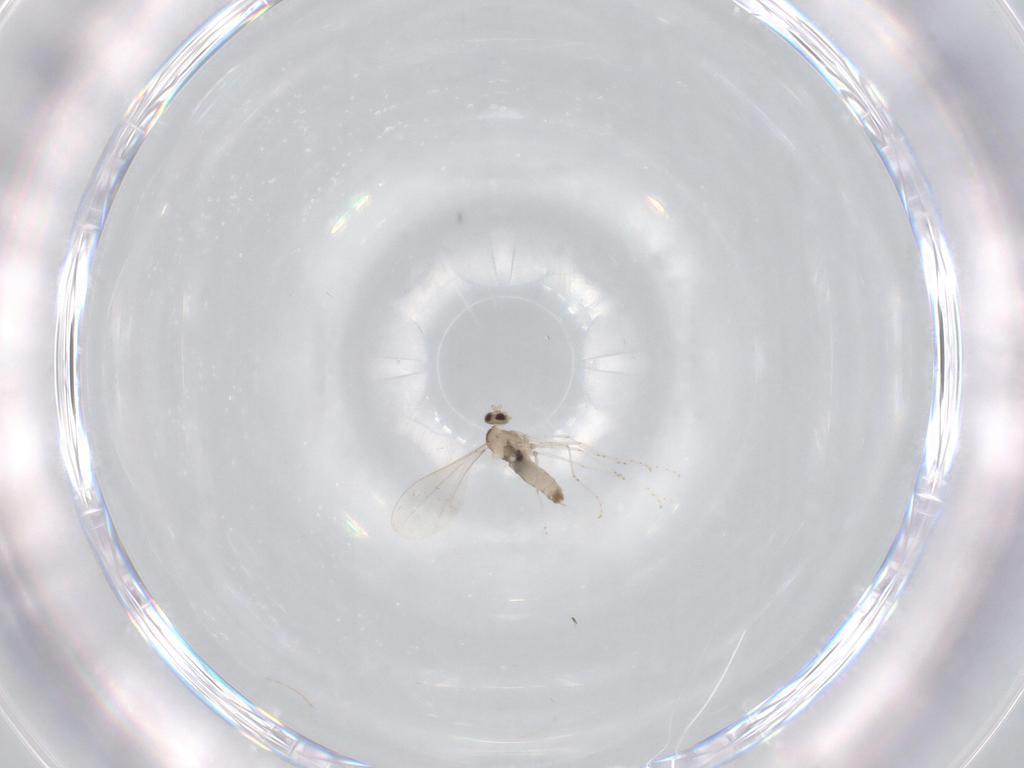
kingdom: Animalia
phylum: Arthropoda
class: Insecta
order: Diptera
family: Cecidomyiidae
